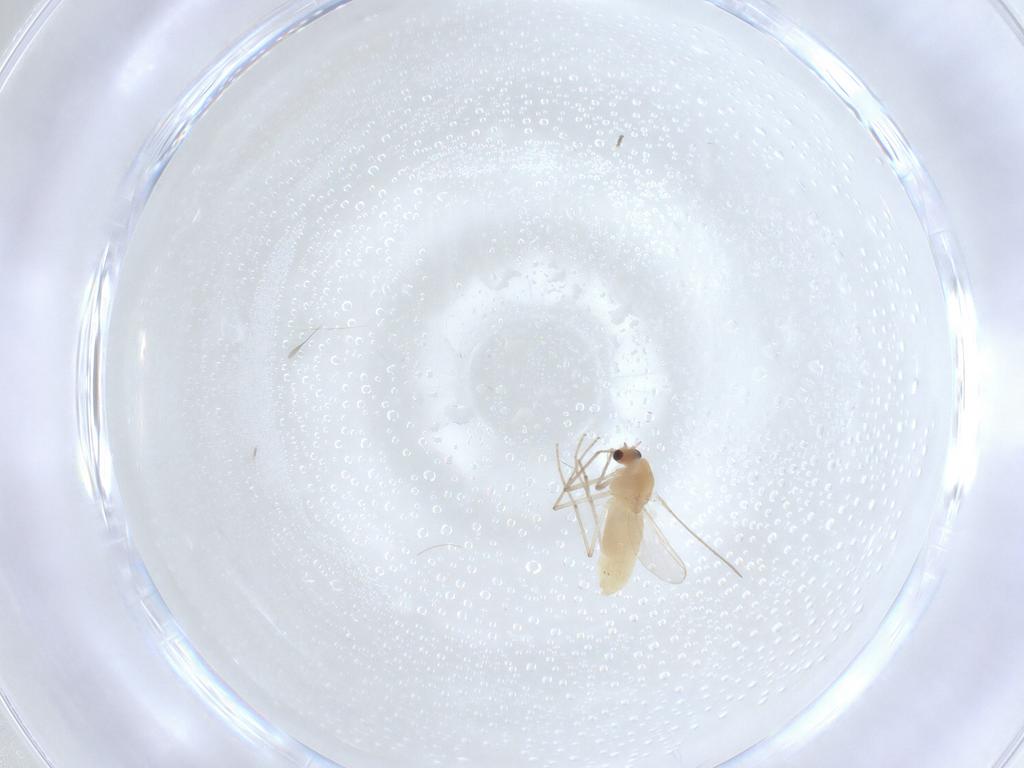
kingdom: Animalia
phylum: Arthropoda
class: Insecta
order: Diptera
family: Chironomidae
